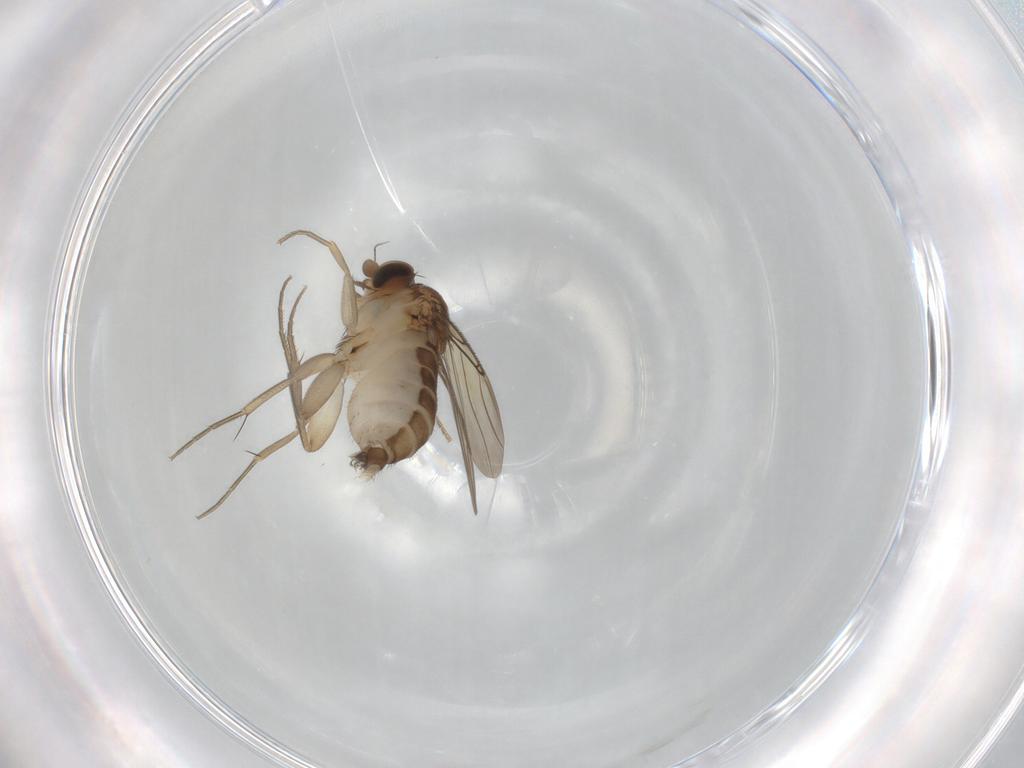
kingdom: Animalia
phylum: Arthropoda
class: Insecta
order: Diptera
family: Phoridae
